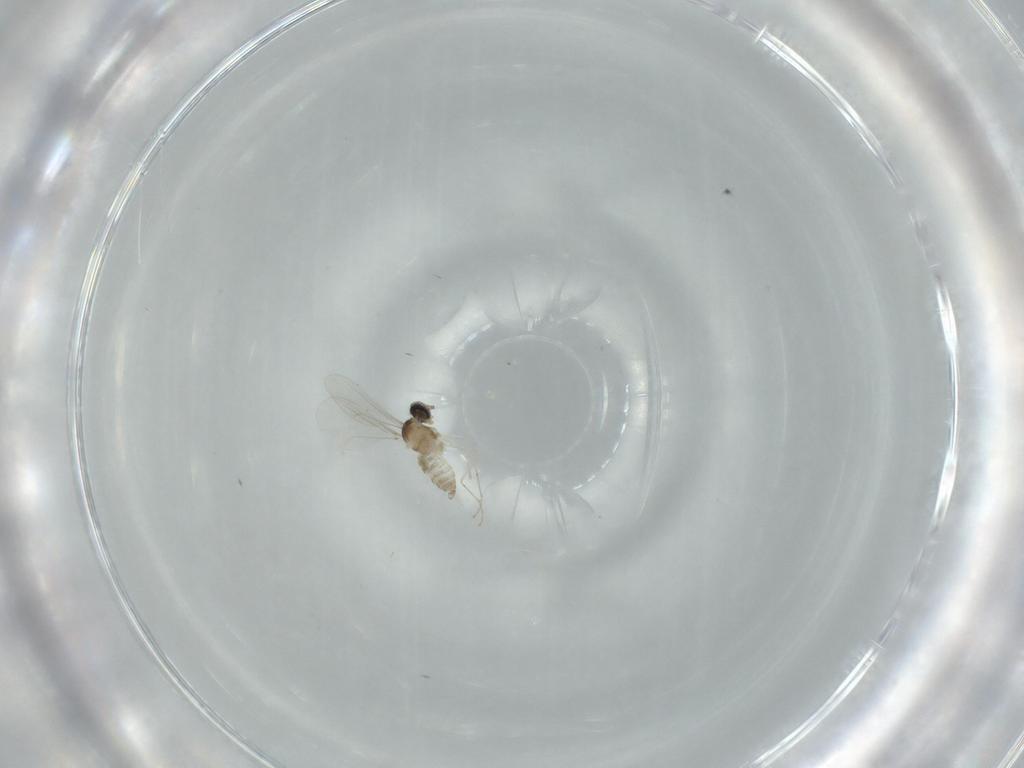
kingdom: Animalia
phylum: Arthropoda
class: Insecta
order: Diptera
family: Cecidomyiidae
